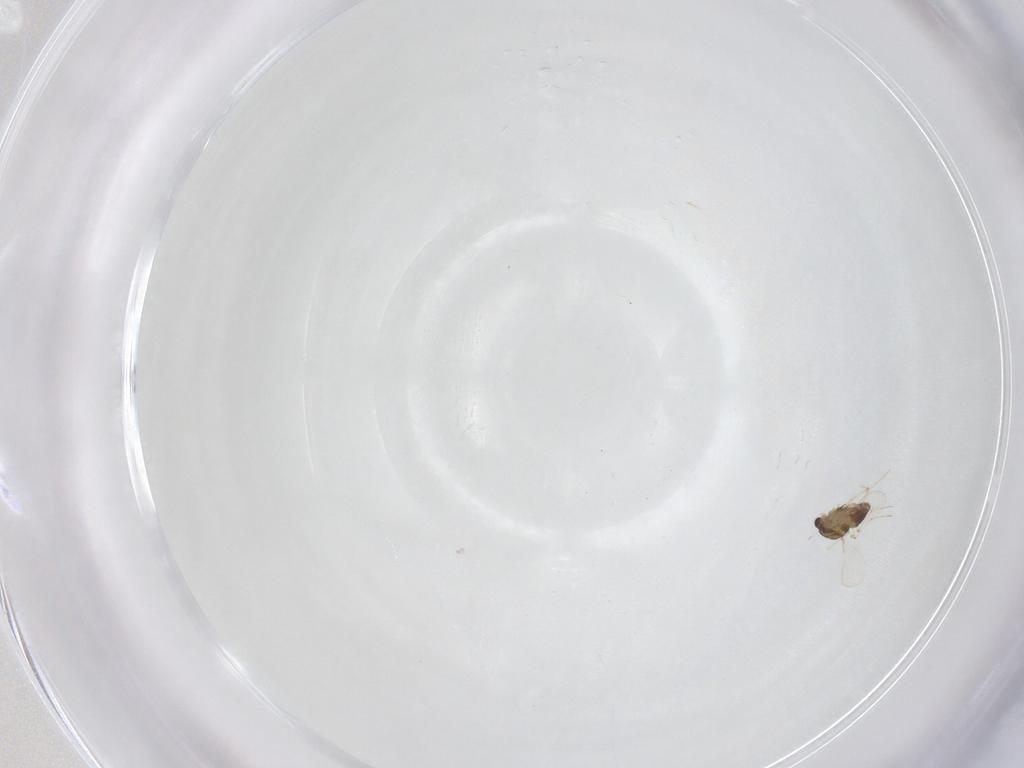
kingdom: Animalia
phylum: Arthropoda
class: Insecta
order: Diptera
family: Chironomidae
